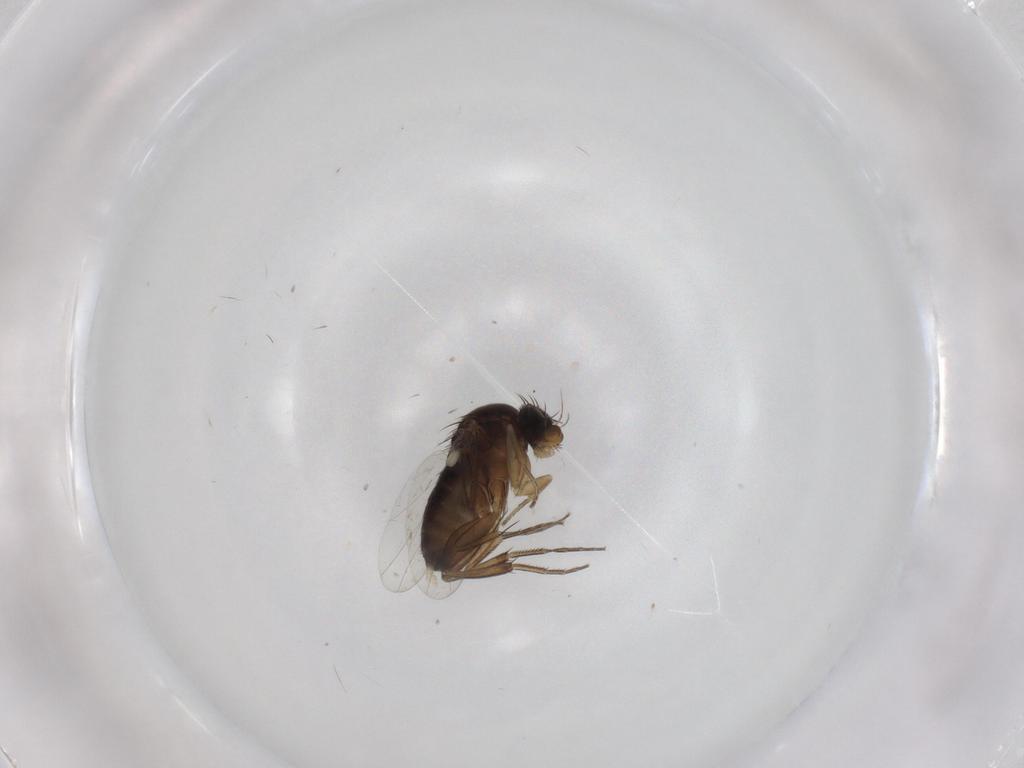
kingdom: Animalia
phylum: Arthropoda
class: Insecta
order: Diptera
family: Phoridae
